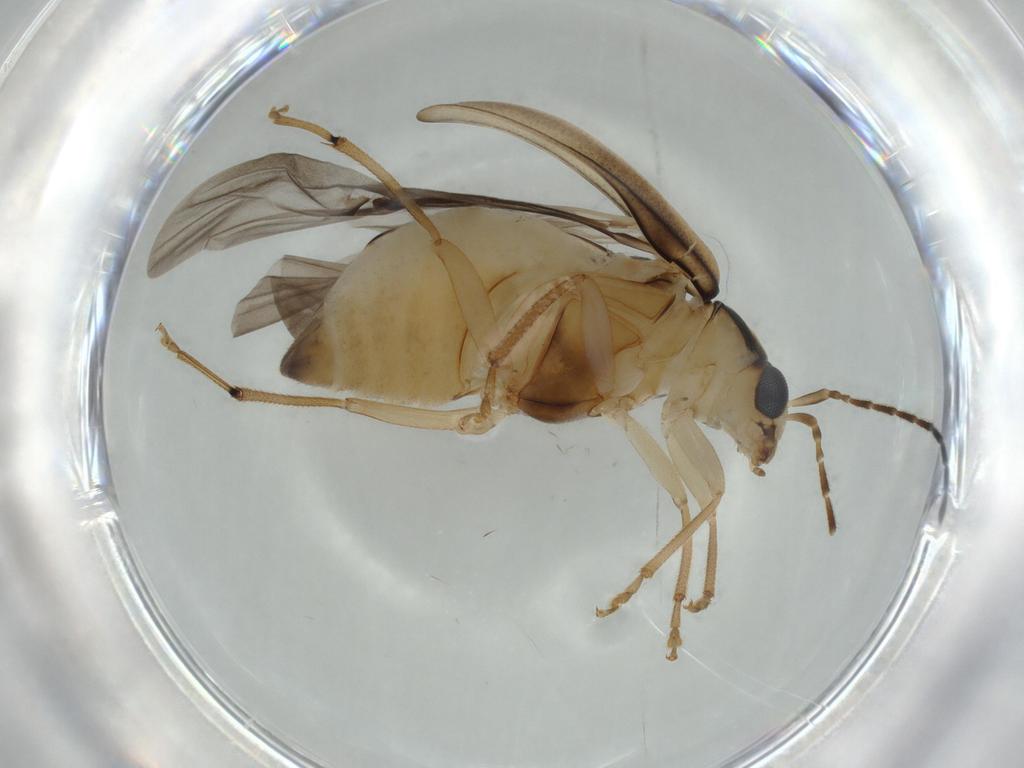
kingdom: Animalia
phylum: Arthropoda
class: Insecta
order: Coleoptera
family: Chrysomelidae
